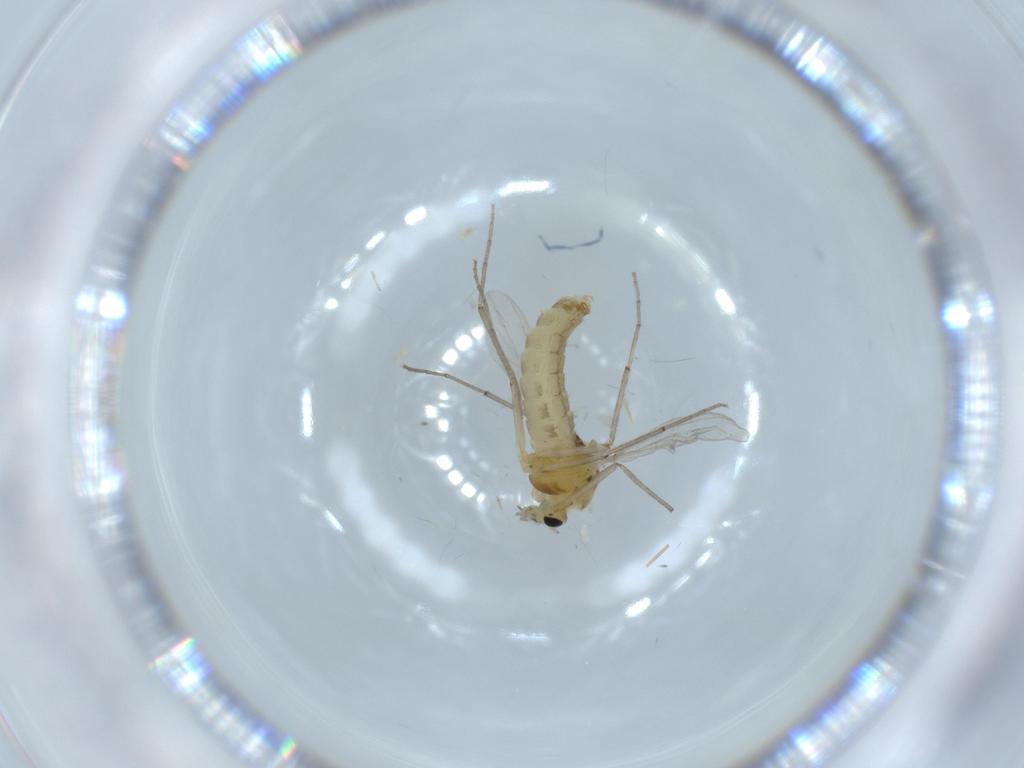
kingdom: Animalia
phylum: Arthropoda
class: Insecta
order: Diptera
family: Chironomidae
